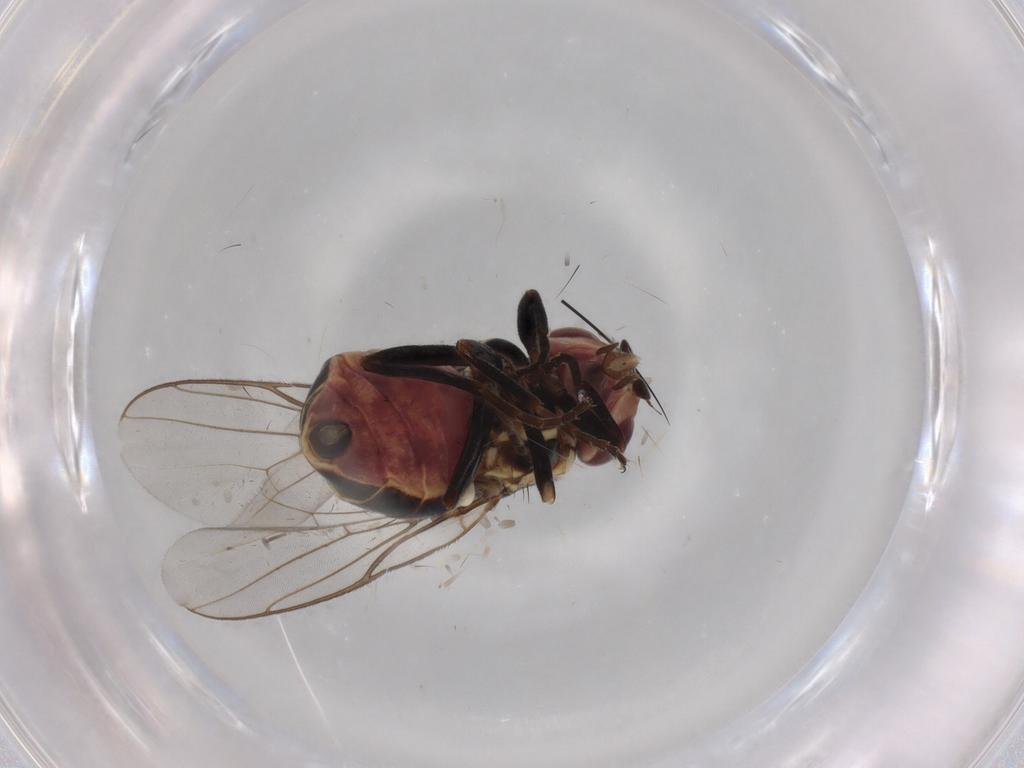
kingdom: Animalia
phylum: Arthropoda
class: Insecta
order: Diptera
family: Chloropidae
